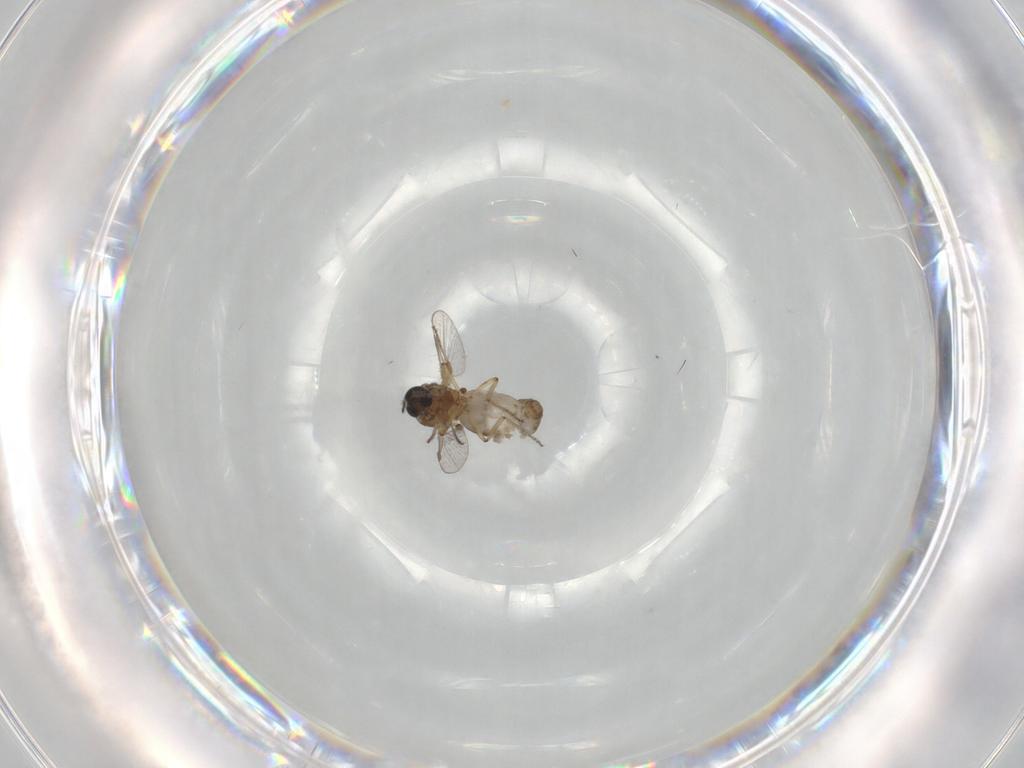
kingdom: Animalia
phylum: Arthropoda
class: Insecta
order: Diptera
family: Ceratopogonidae
